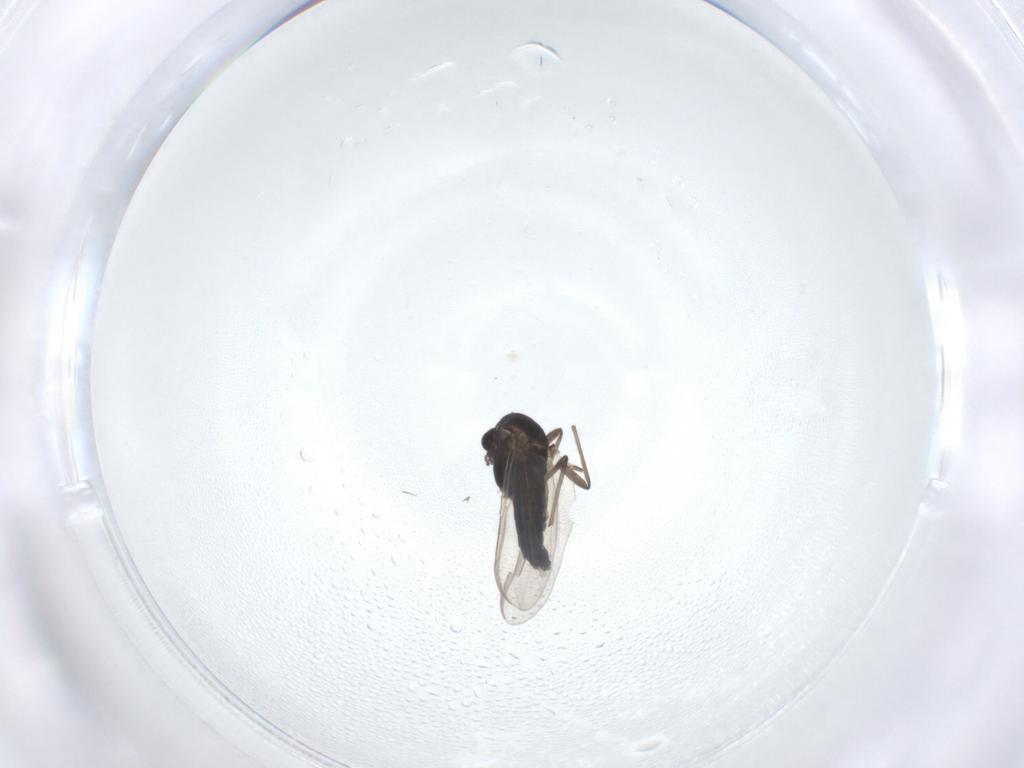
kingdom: Animalia
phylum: Arthropoda
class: Insecta
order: Diptera
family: Chironomidae
